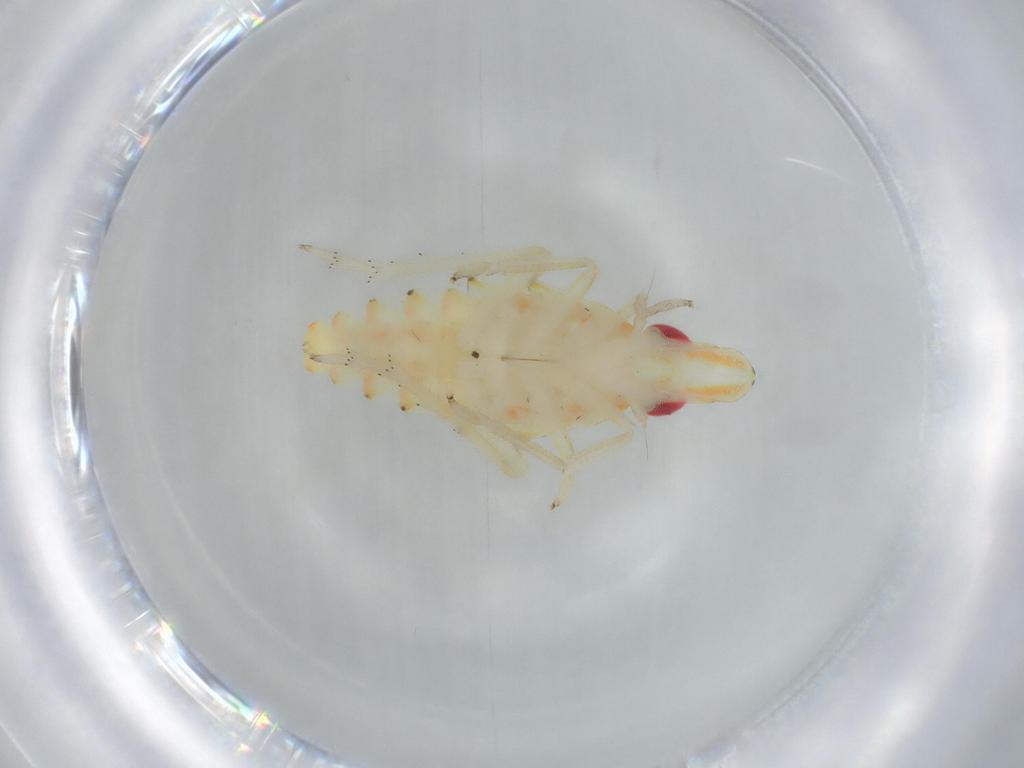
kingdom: Animalia
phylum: Arthropoda
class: Insecta
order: Hemiptera
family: Tropiduchidae
